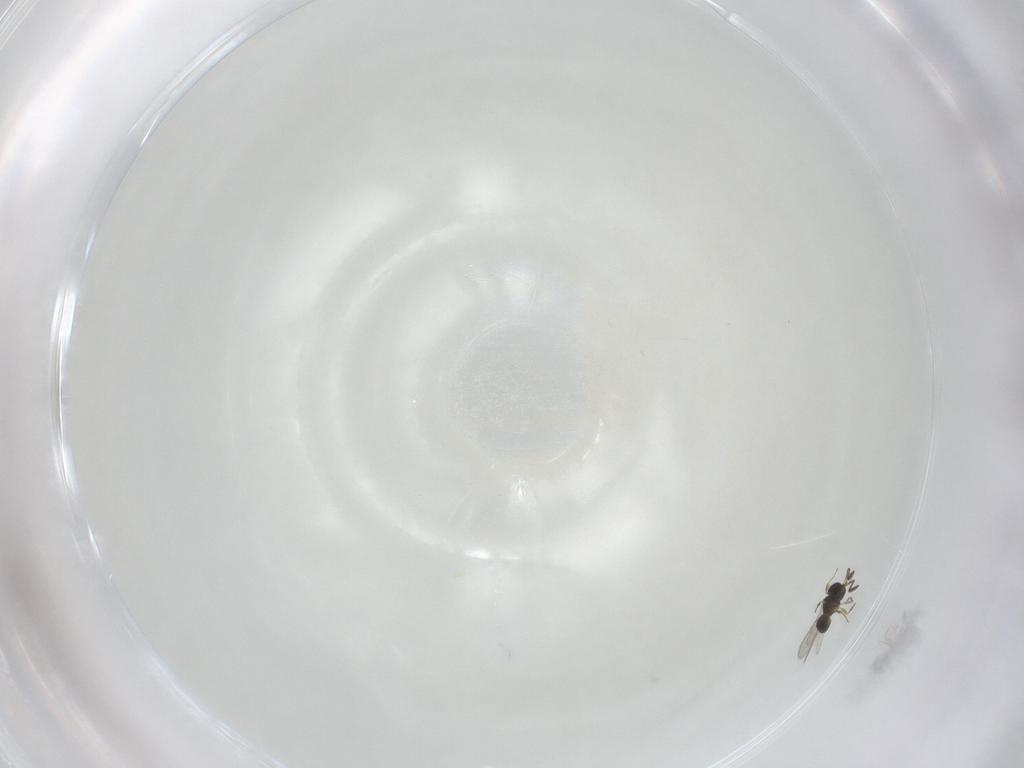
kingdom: Animalia
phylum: Arthropoda
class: Insecta
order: Hymenoptera
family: Scelionidae
